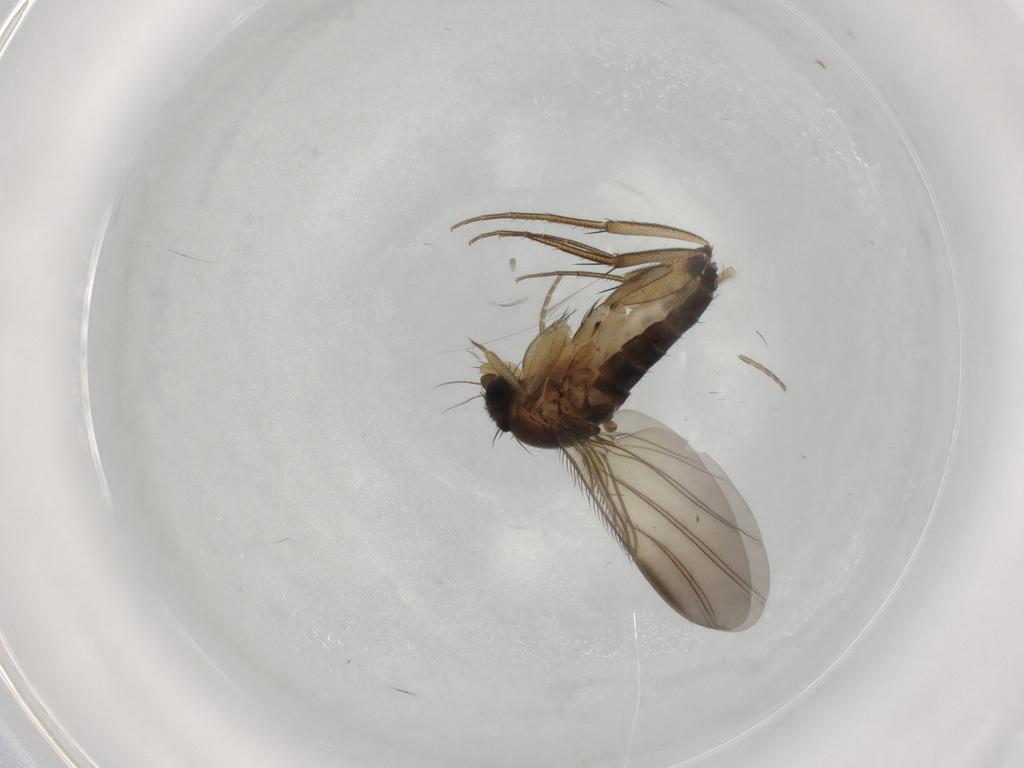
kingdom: Animalia
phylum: Arthropoda
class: Insecta
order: Diptera
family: Phoridae
